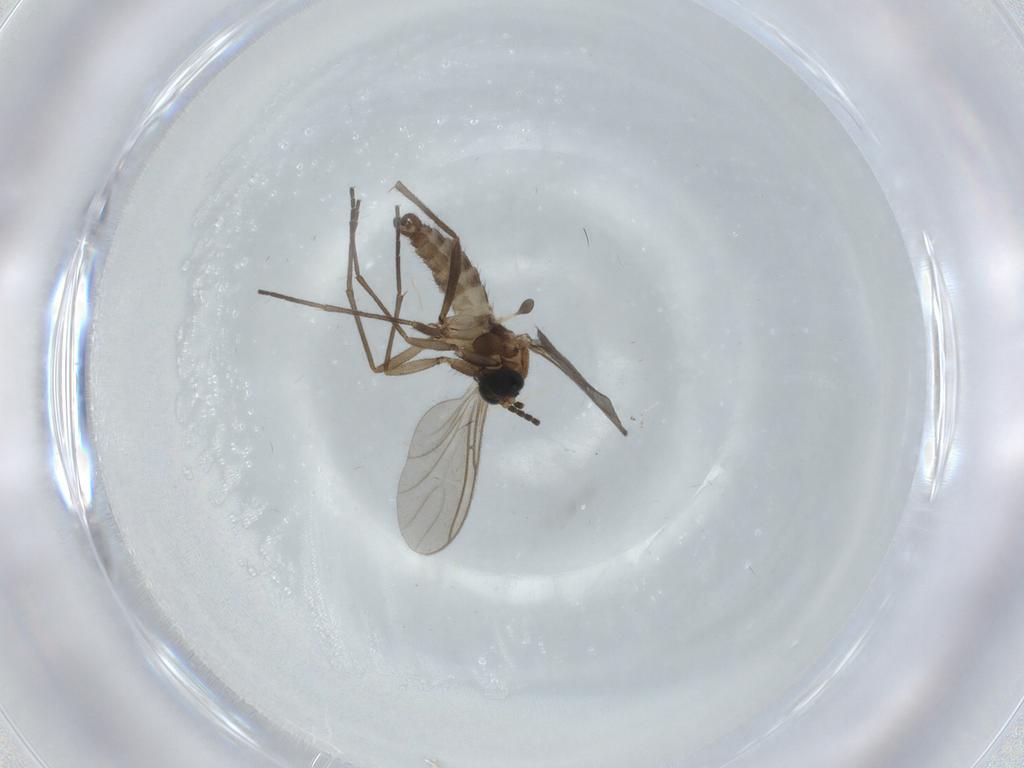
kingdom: Animalia
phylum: Arthropoda
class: Insecta
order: Diptera
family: Sciaridae
